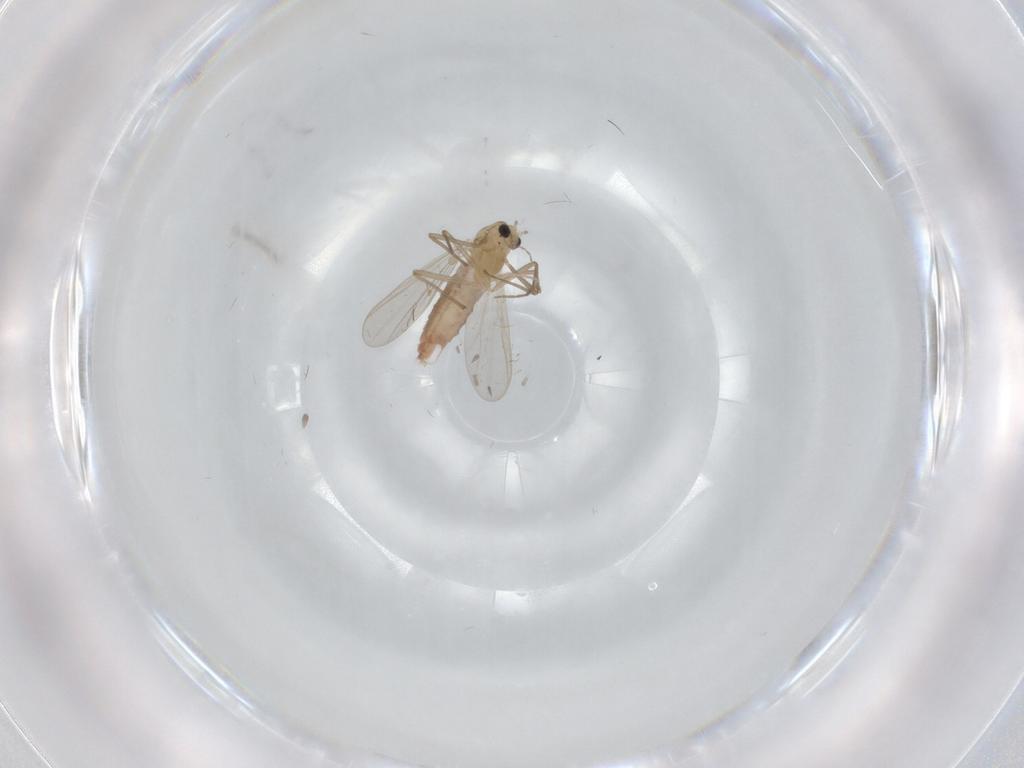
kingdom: Animalia
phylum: Arthropoda
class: Insecta
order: Diptera
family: Chironomidae
